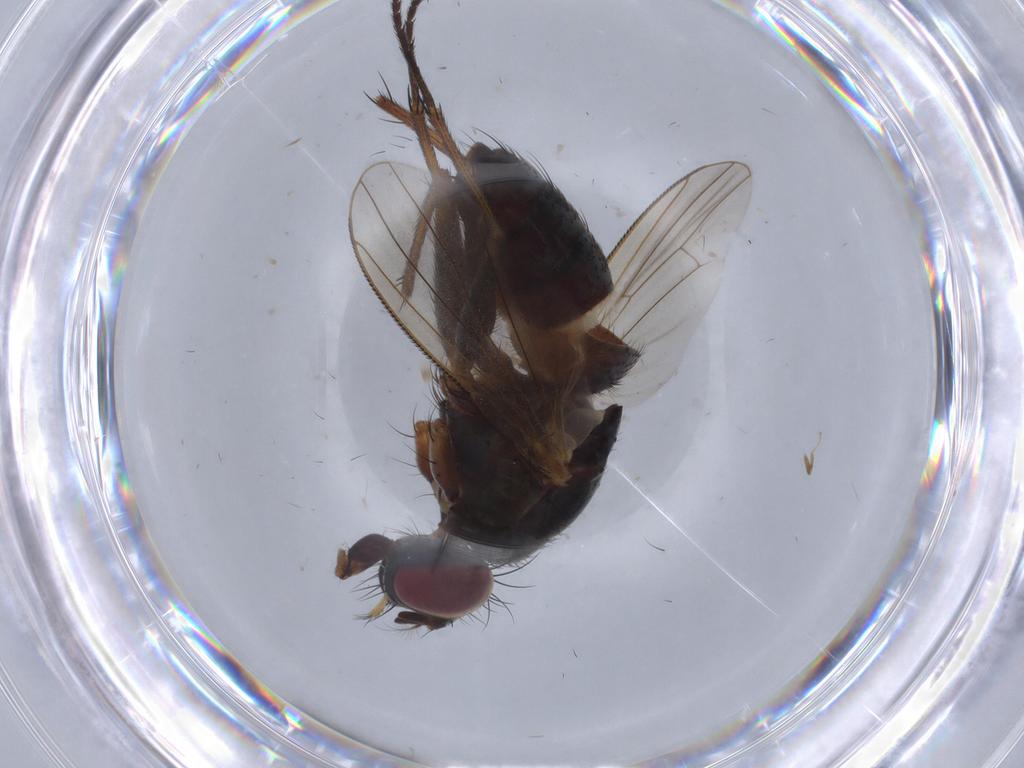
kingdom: Animalia
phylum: Arthropoda
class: Insecta
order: Diptera
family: Muscidae
